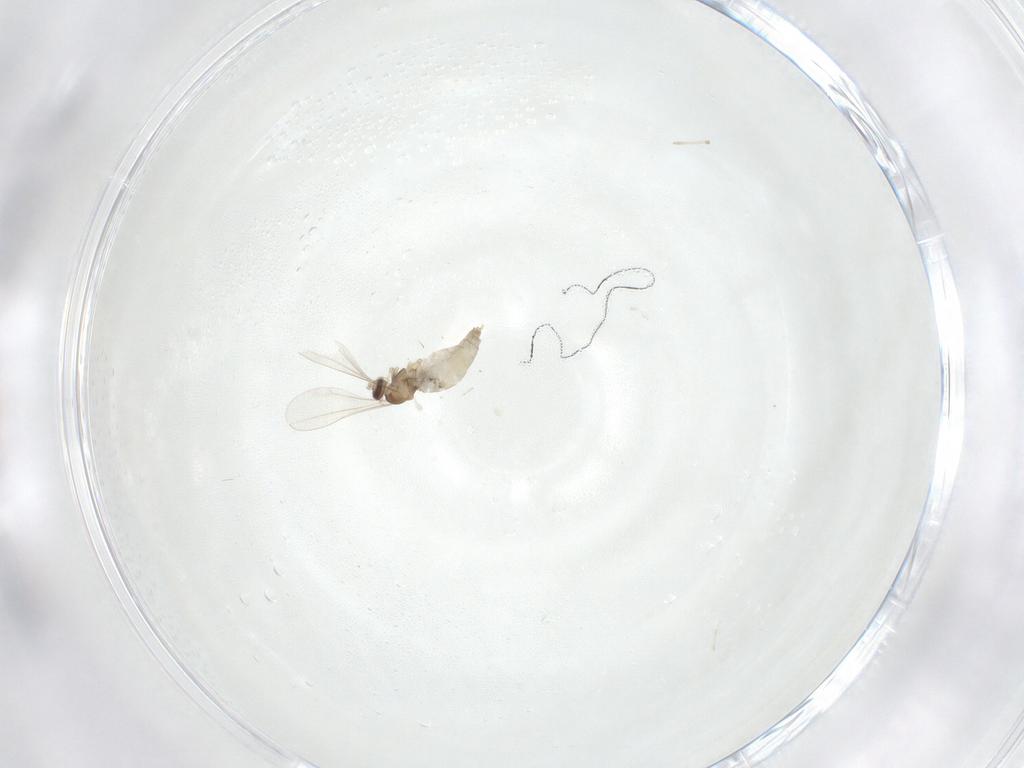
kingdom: Animalia
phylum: Arthropoda
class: Insecta
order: Diptera
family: Cecidomyiidae
